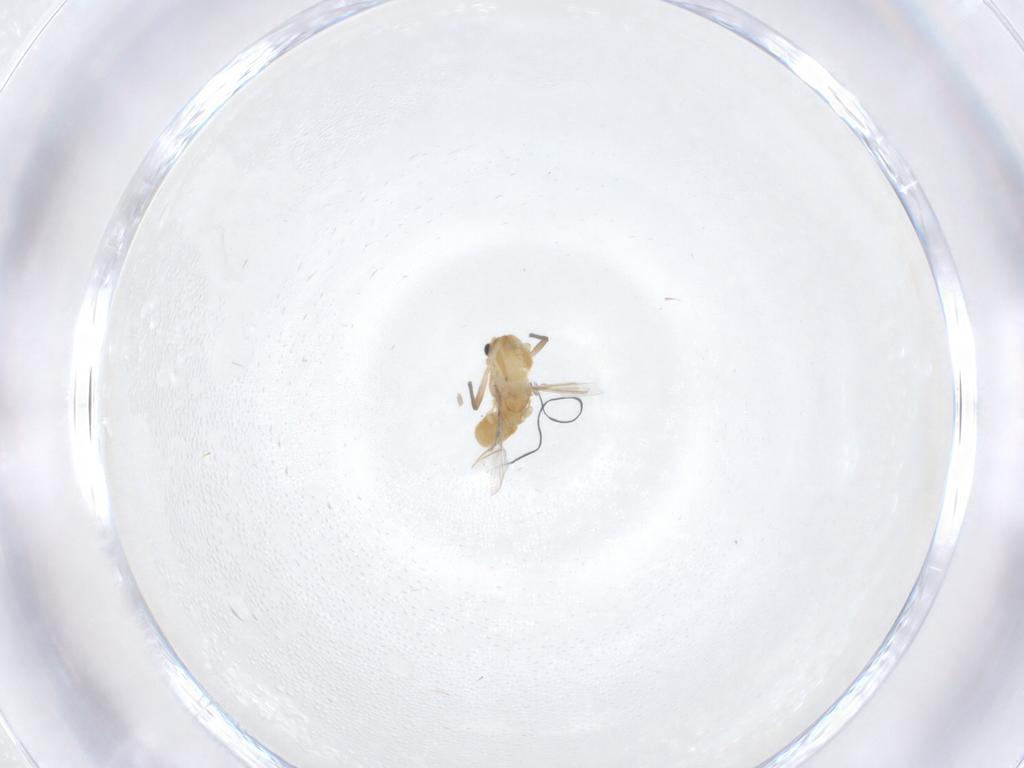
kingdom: Animalia
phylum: Arthropoda
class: Insecta
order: Diptera
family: Chironomidae
